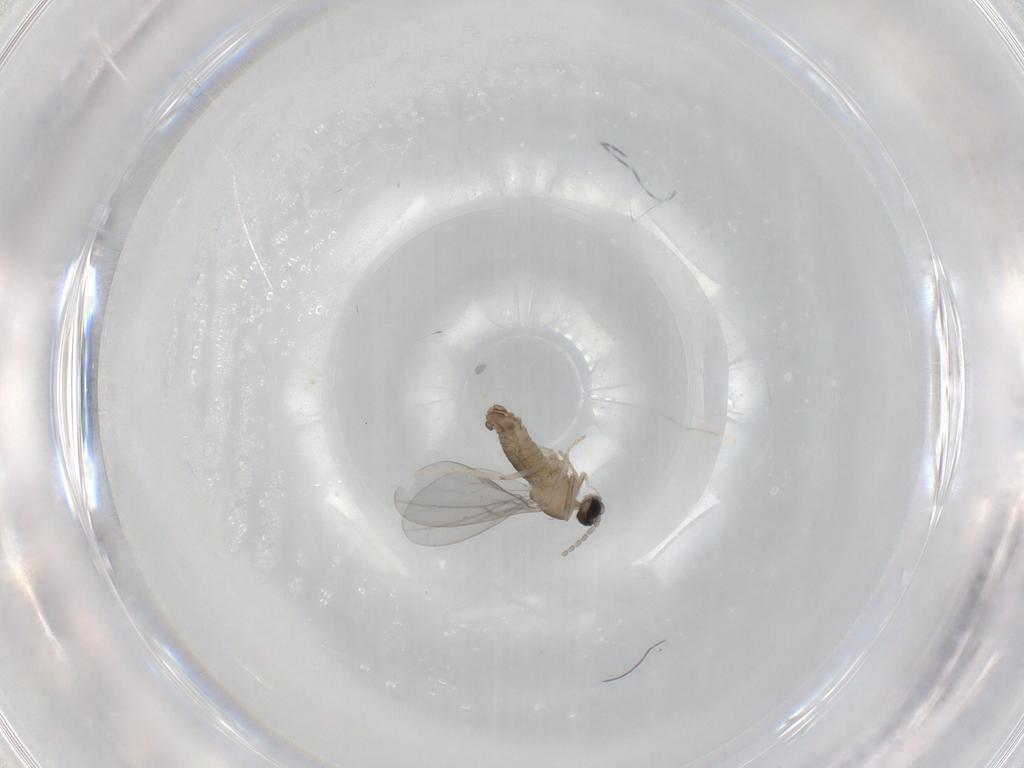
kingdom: Animalia
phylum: Arthropoda
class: Insecta
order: Diptera
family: Cecidomyiidae
